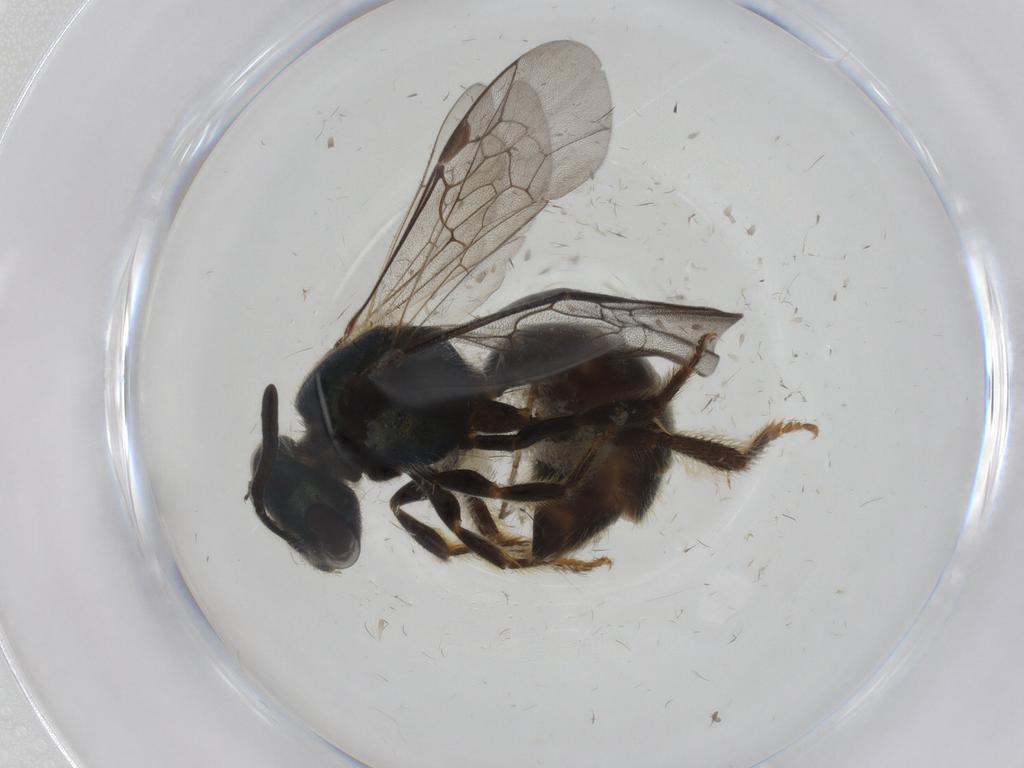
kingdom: Animalia
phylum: Arthropoda
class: Insecta
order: Hymenoptera
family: Halictidae
